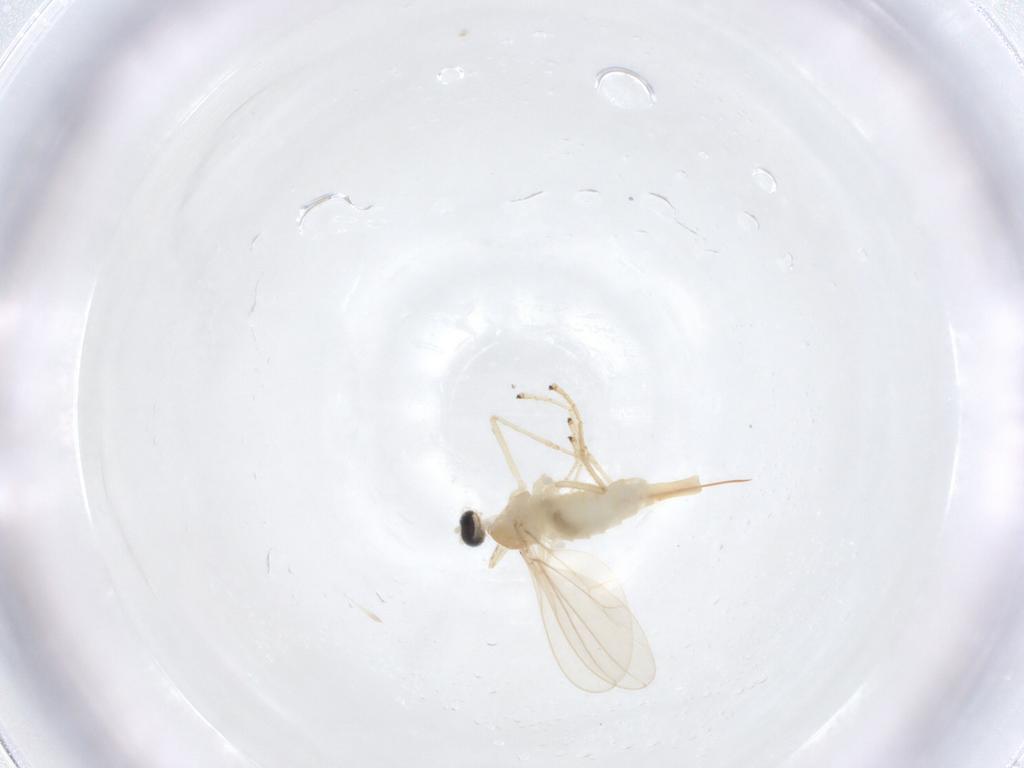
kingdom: Animalia
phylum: Arthropoda
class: Insecta
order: Diptera
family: Cecidomyiidae
